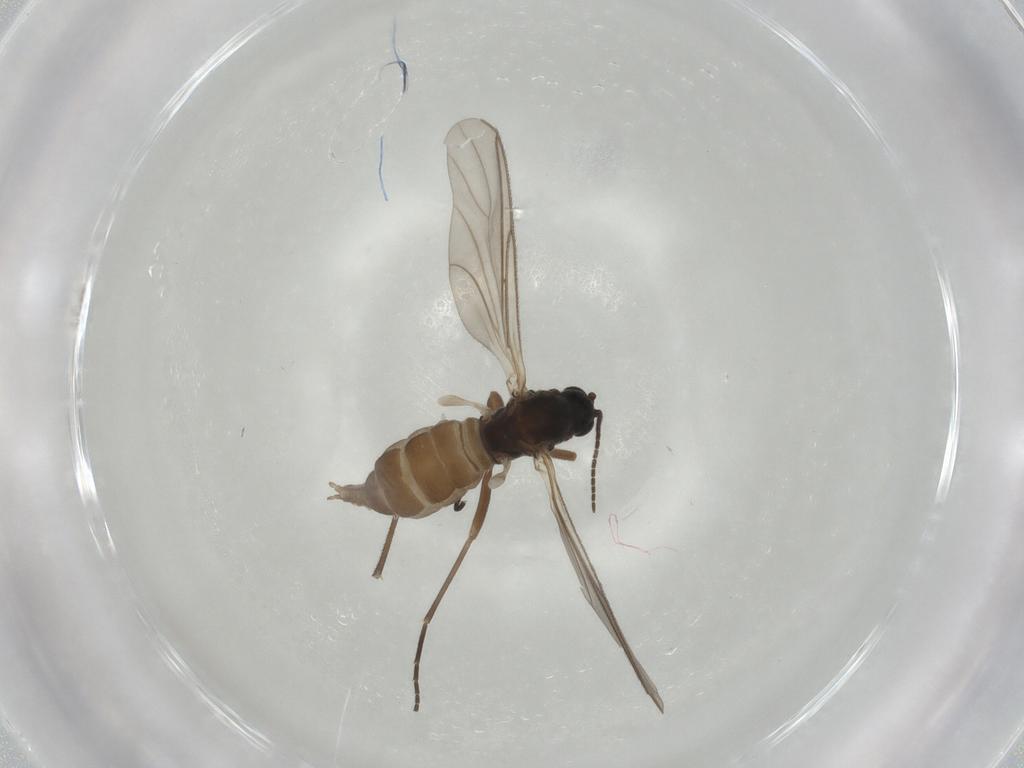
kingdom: Animalia
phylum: Arthropoda
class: Insecta
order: Diptera
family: Sciaridae
